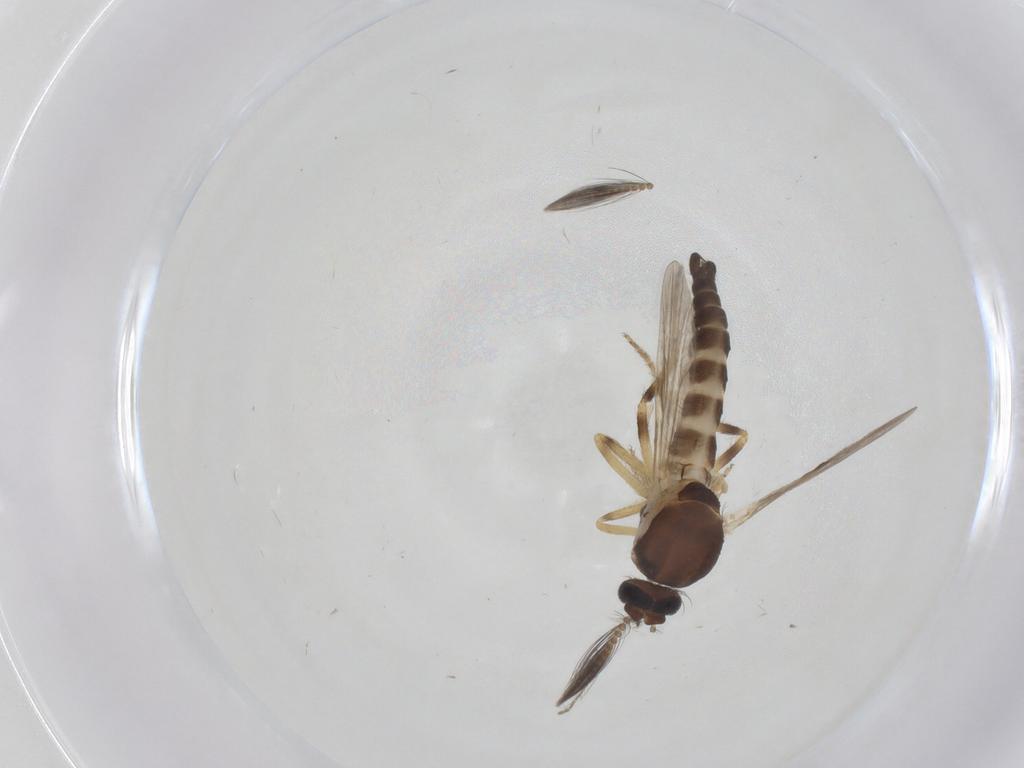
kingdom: Animalia
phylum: Arthropoda
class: Insecta
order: Diptera
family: Ceratopogonidae
